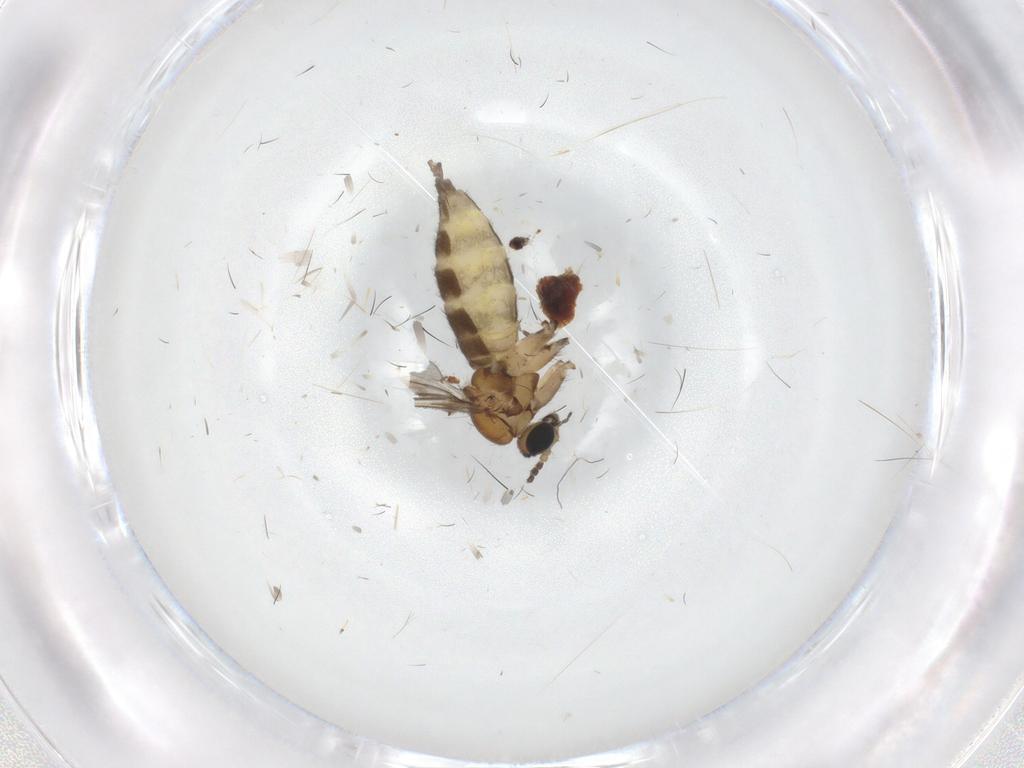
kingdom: Animalia
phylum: Arthropoda
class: Insecta
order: Diptera
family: Sciaridae
